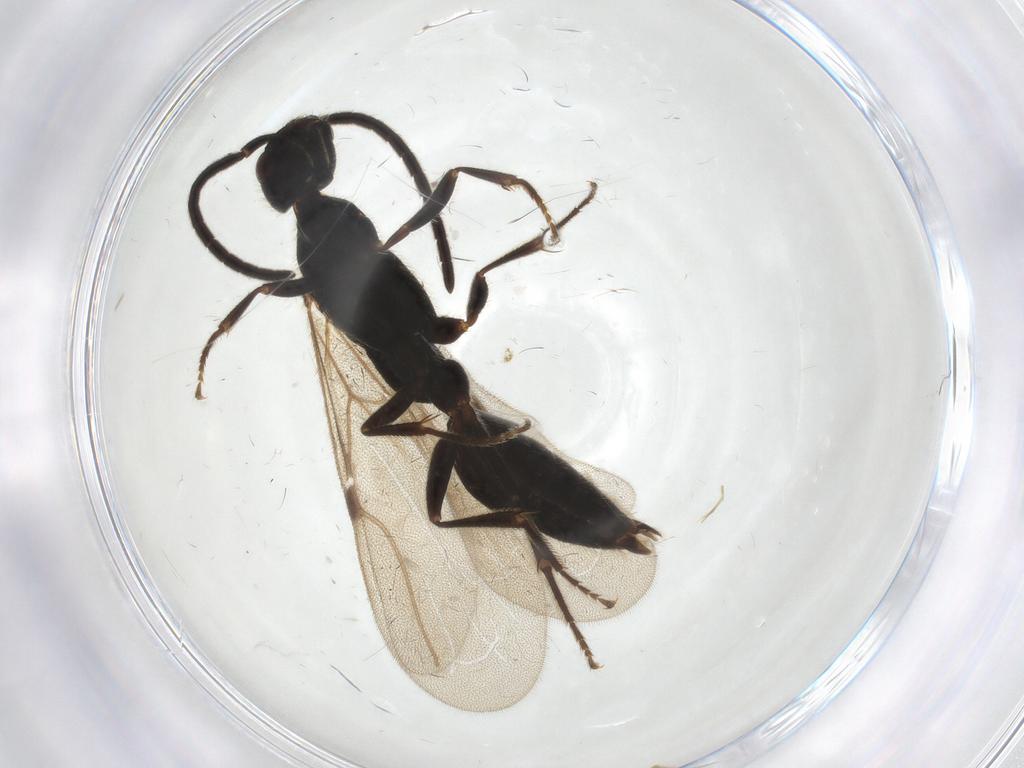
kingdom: Animalia
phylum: Arthropoda
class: Insecta
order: Hymenoptera
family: Bethylidae
